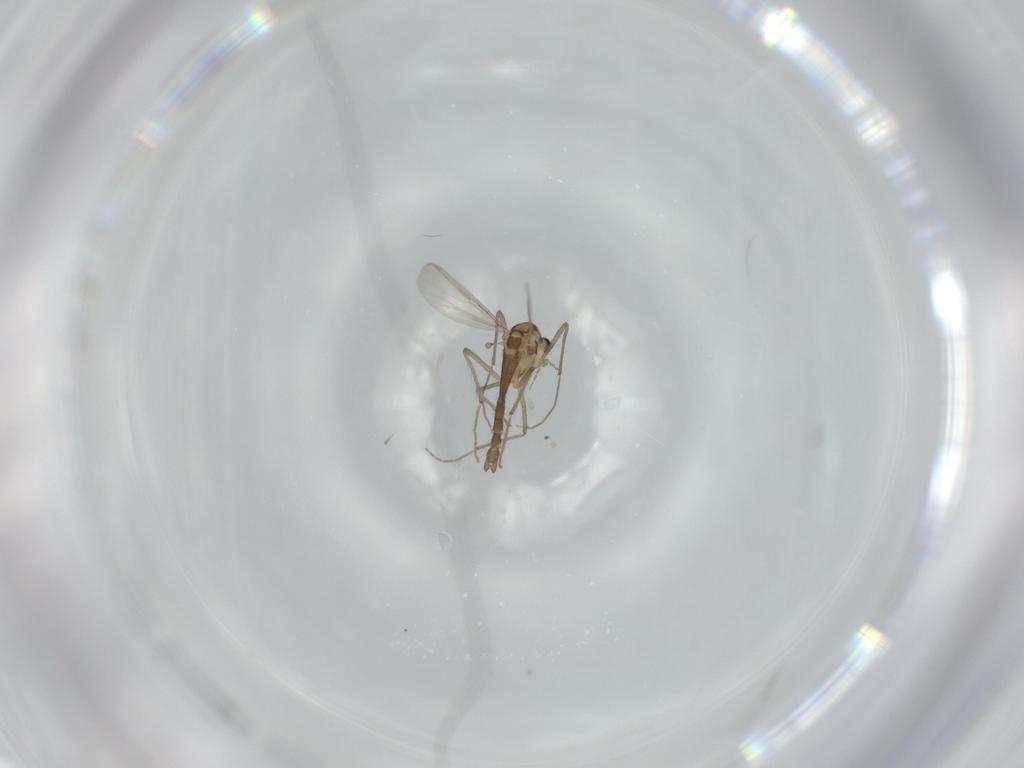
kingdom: Animalia
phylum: Arthropoda
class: Insecta
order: Diptera
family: Chironomidae
